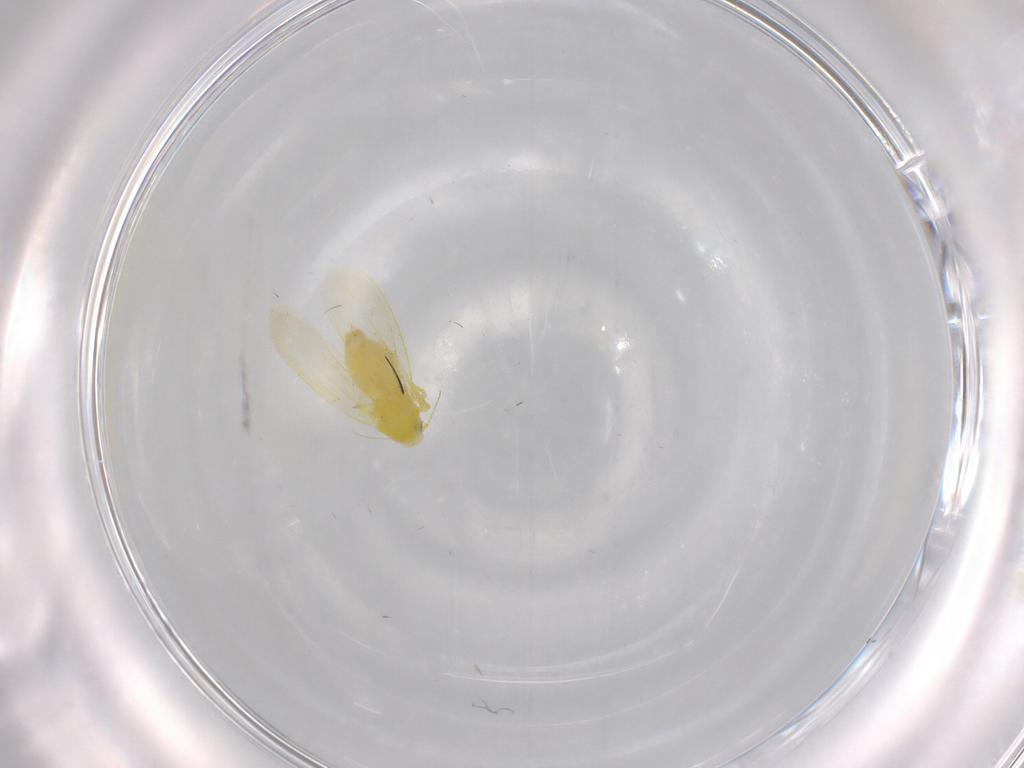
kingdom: Animalia
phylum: Arthropoda
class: Insecta
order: Hemiptera
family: Aleyrodidae
